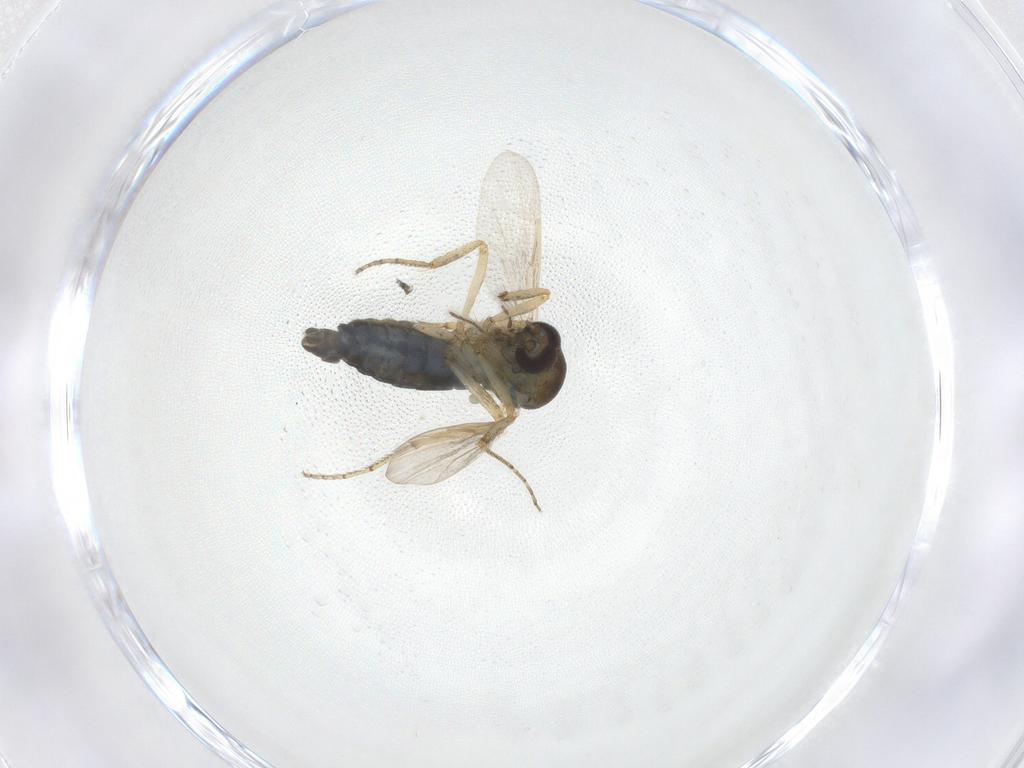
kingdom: Animalia
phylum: Arthropoda
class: Insecta
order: Diptera
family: Ceratopogonidae
